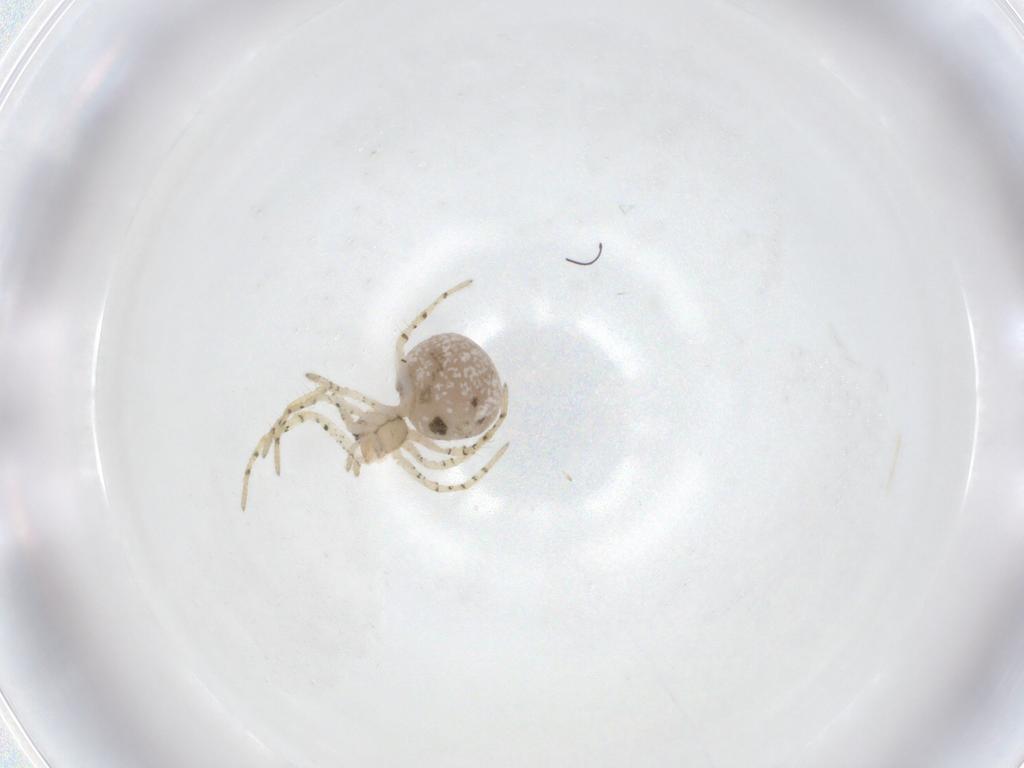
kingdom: Animalia
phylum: Arthropoda
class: Arachnida
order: Araneae
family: Theridiidae
